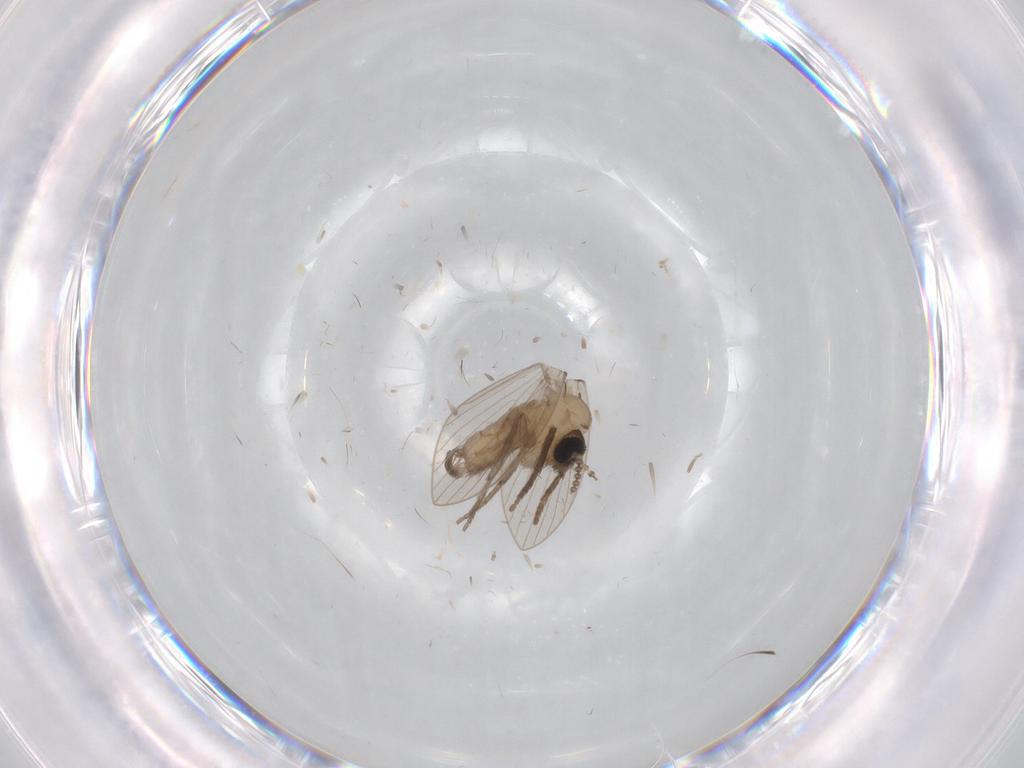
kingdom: Animalia
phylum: Arthropoda
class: Insecta
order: Diptera
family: Psychodidae
